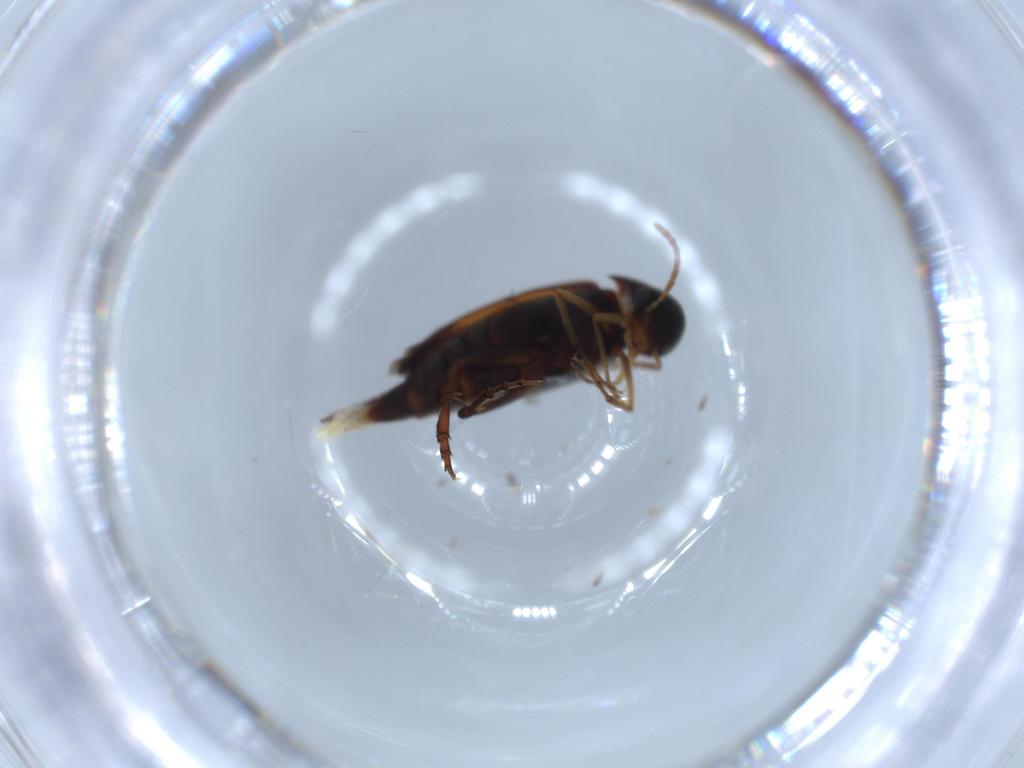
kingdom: Animalia
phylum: Arthropoda
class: Insecta
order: Coleoptera
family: Mordellidae
